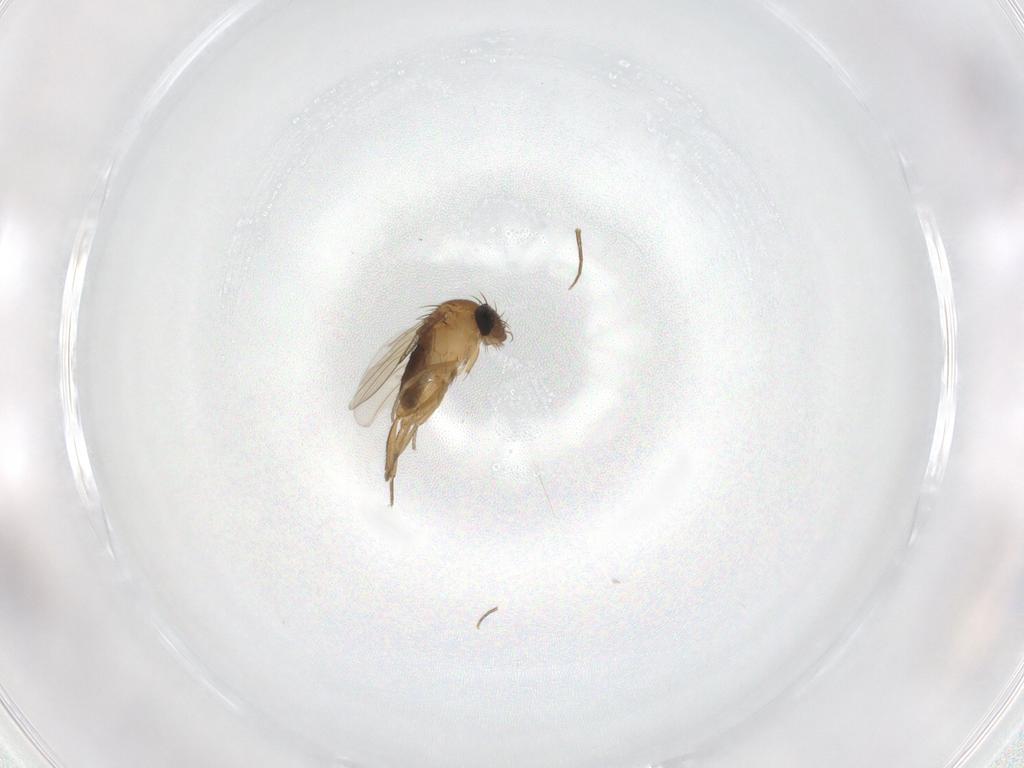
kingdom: Animalia
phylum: Arthropoda
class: Insecta
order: Diptera
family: Phoridae
